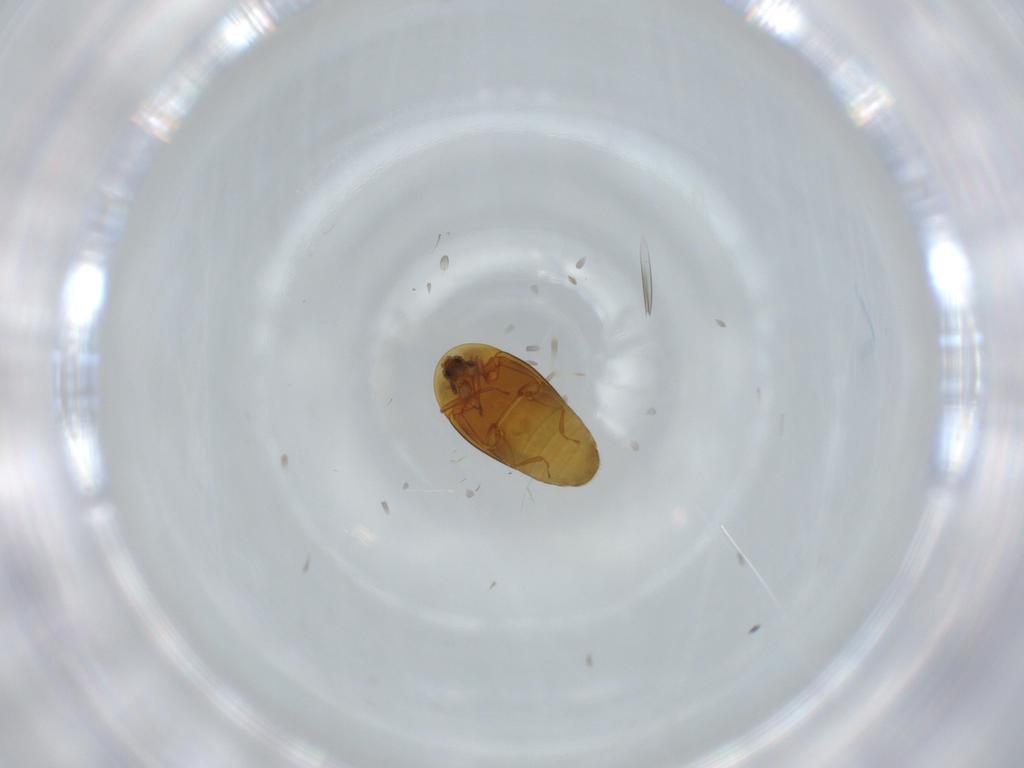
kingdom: Animalia
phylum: Arthropoda
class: Insecta
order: Coleoptera
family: Corylophidae
